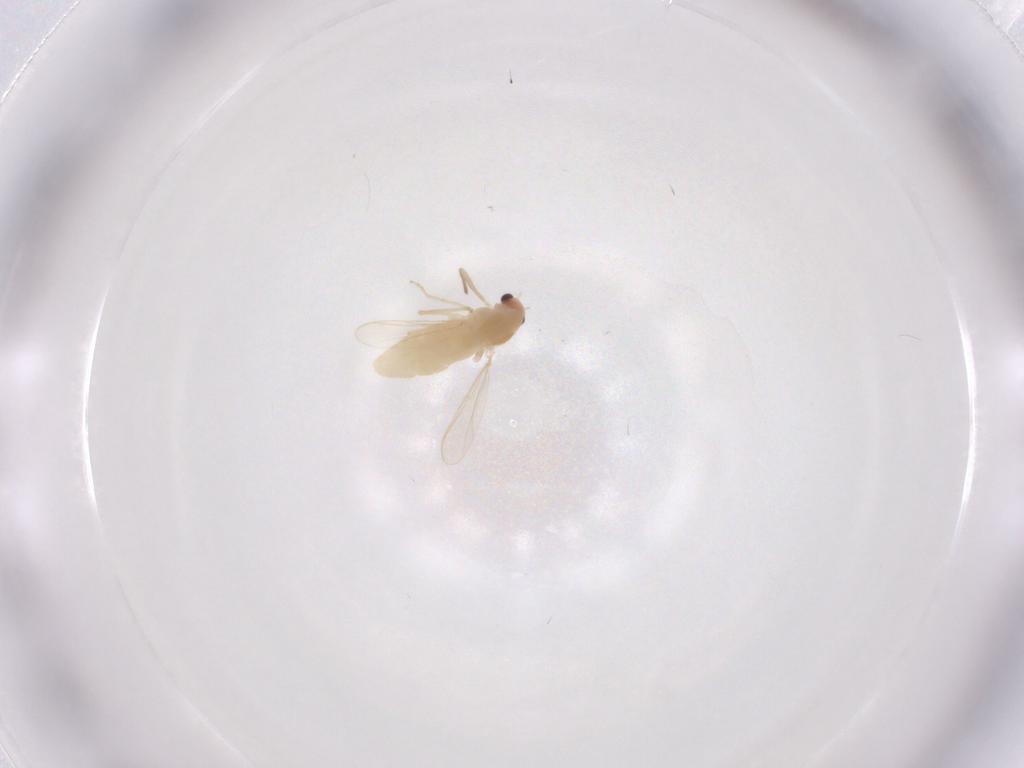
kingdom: Animalia
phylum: Arthropoda
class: Insecta
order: Diptera
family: Chironomidae
